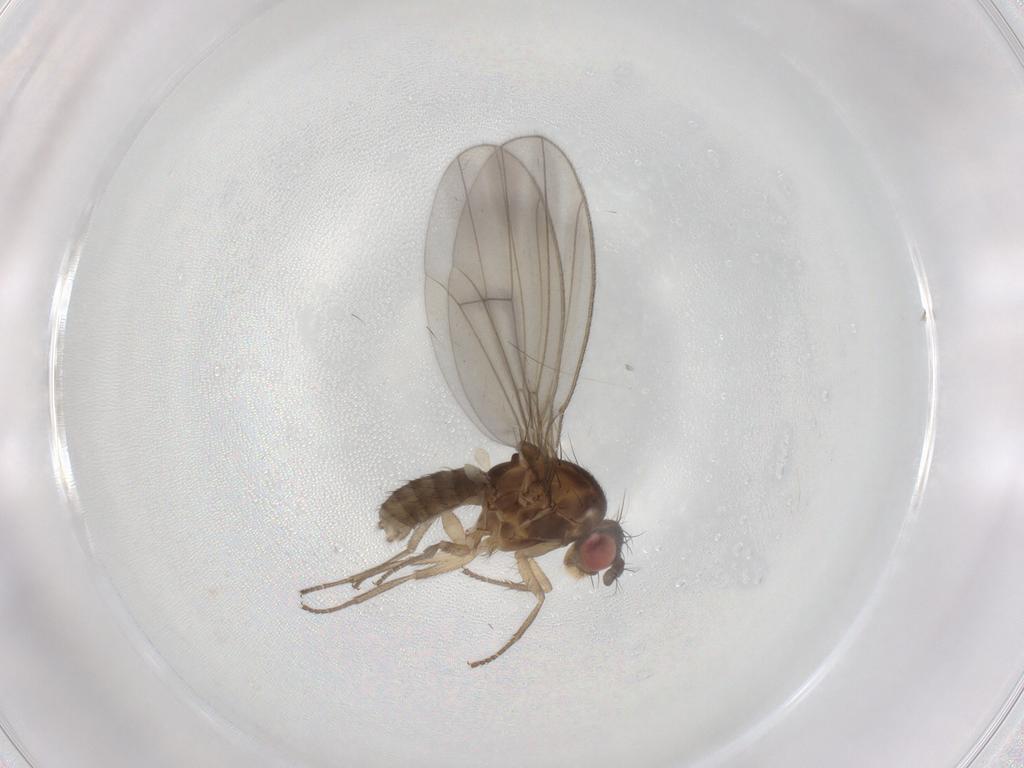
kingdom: Animalia
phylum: Arthropoda
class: Insecta
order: Diptera
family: Drosophilidae
